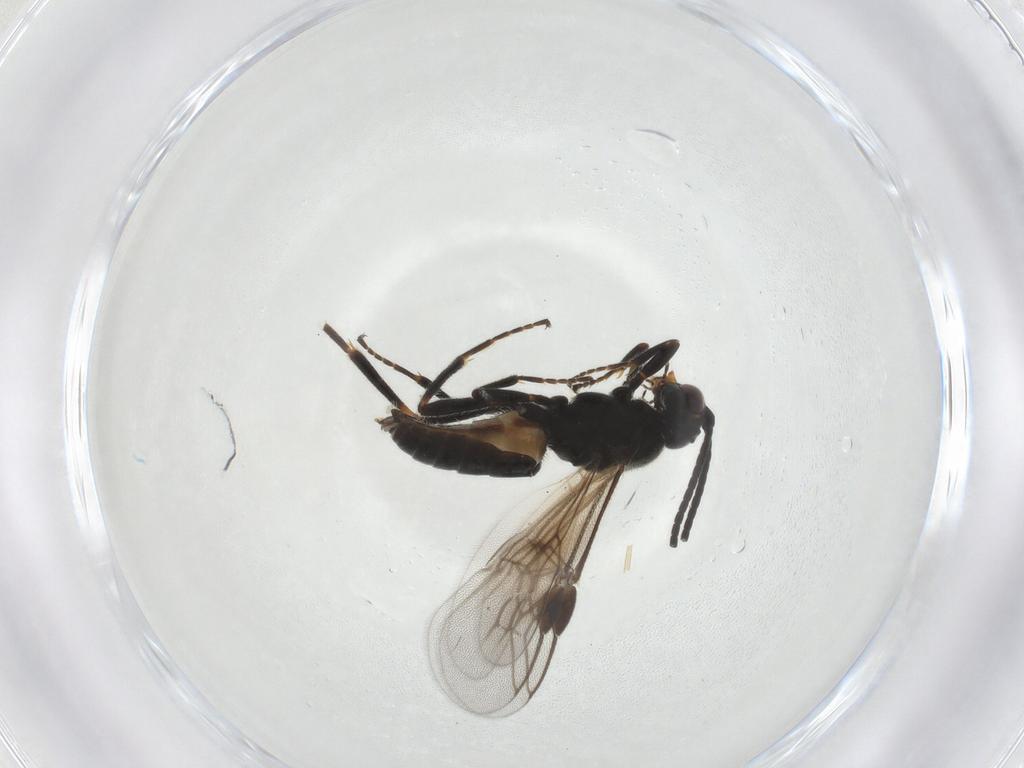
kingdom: Animalia
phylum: Arthropoda
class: Insecta
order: Hymenoptera
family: Braconidae
